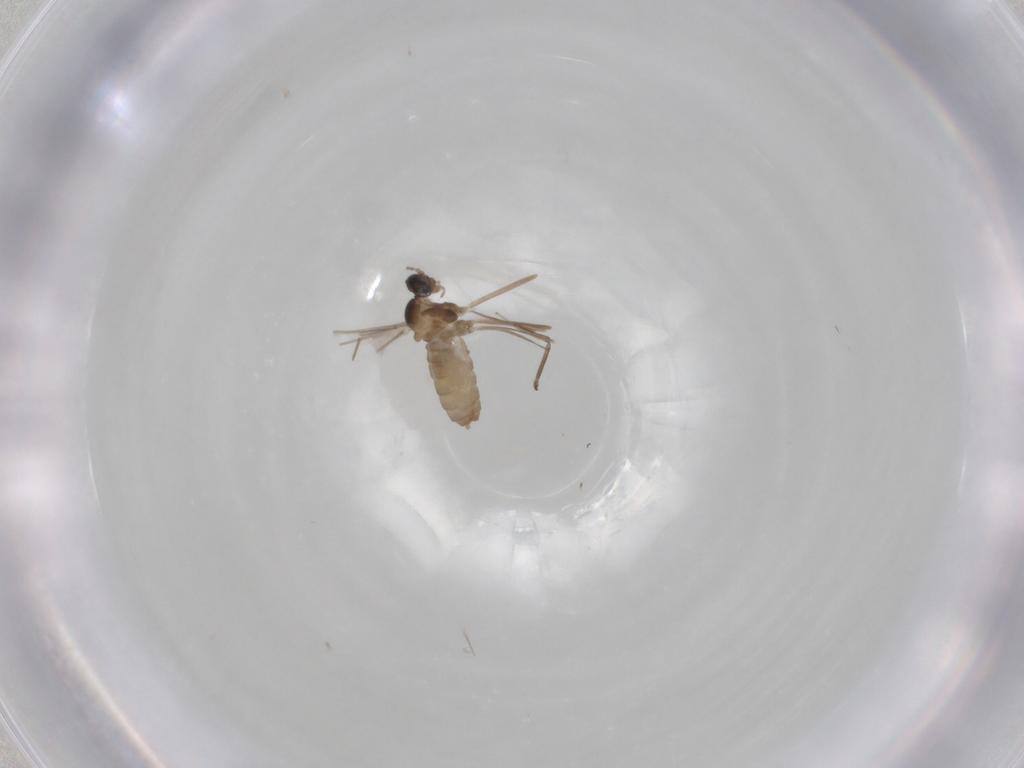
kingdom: Animalia
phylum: Arthropoda
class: Insecta
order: Diptera
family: Cecidomyiidae
